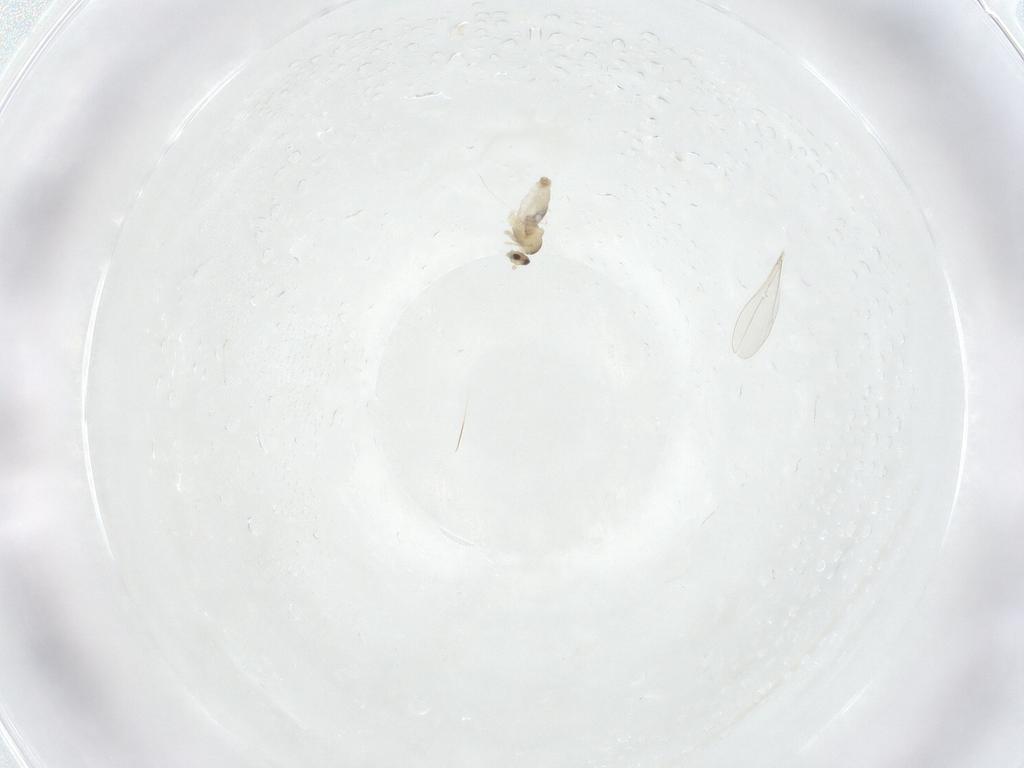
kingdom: Animalia
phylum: Arthropoda
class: Insecta
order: Diptera
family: Cecidomyiidae
